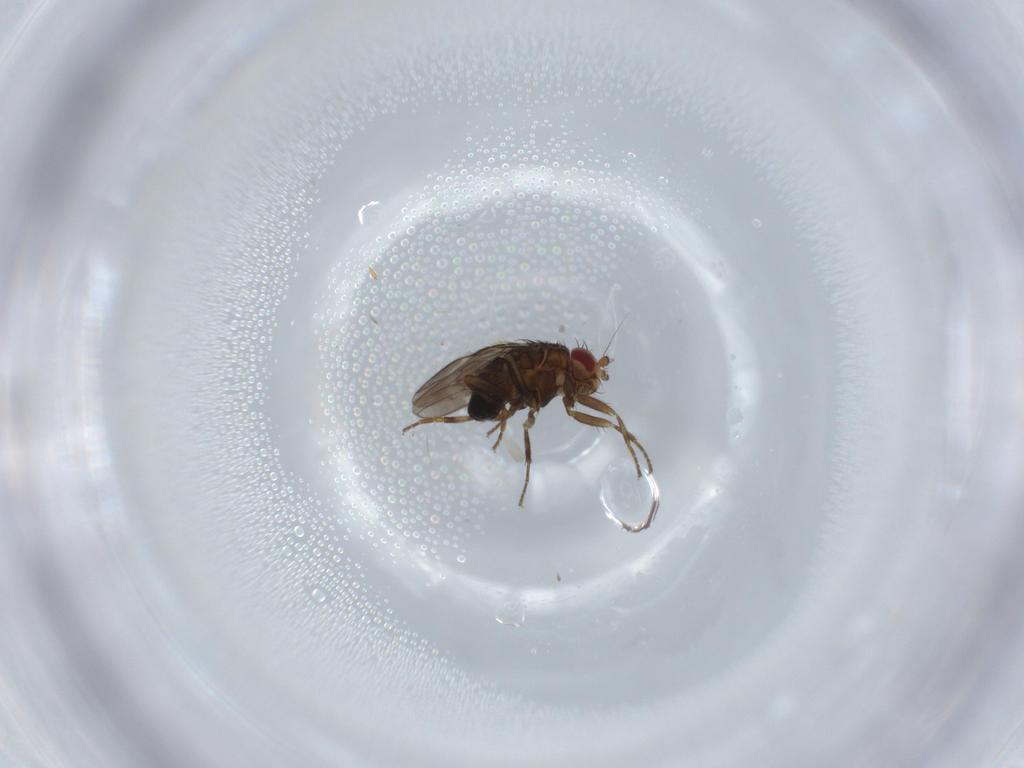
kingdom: Animalia
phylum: Arthropoda
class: Insecta
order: Diptera
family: Sphaeroceridae
